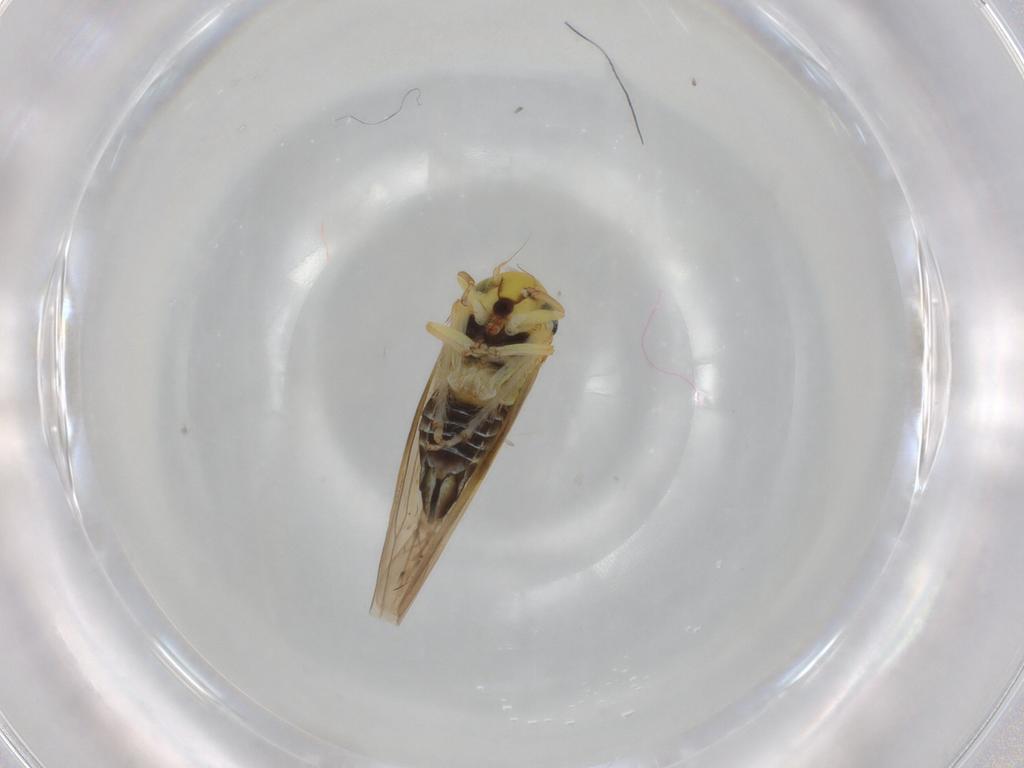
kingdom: Animalia
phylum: Arthropoda
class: Insecta
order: Hemiptera
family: Cicadellidae
